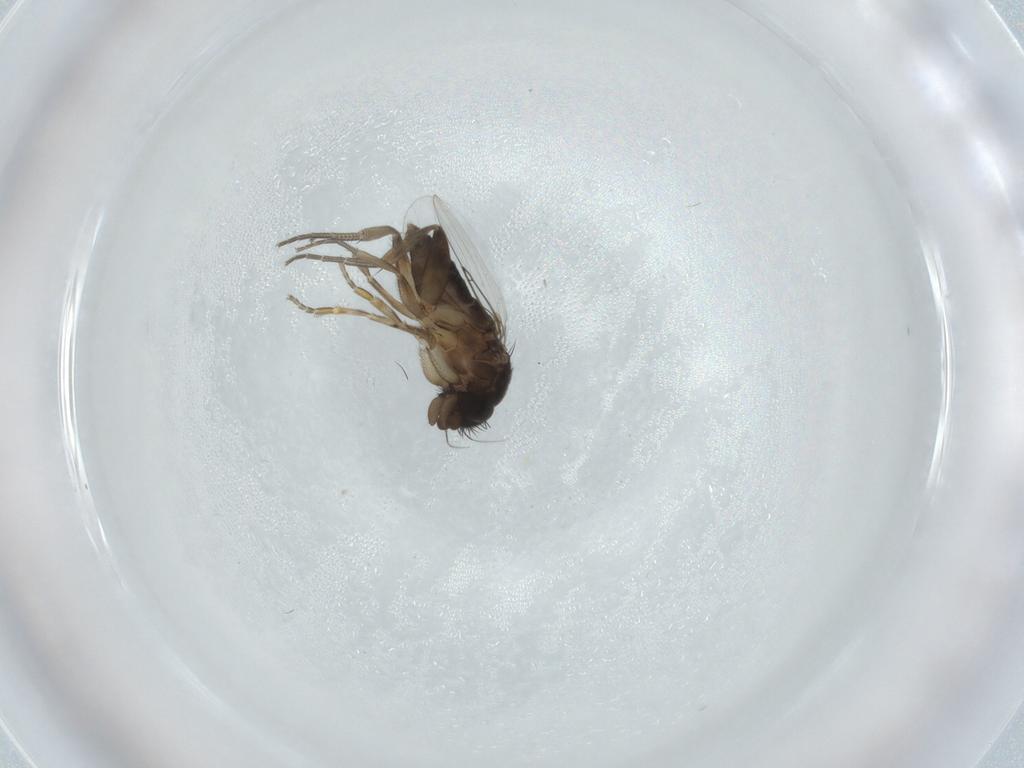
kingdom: Animalia
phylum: Arthropoda
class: Insecta
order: Diptera
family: Phoridae
